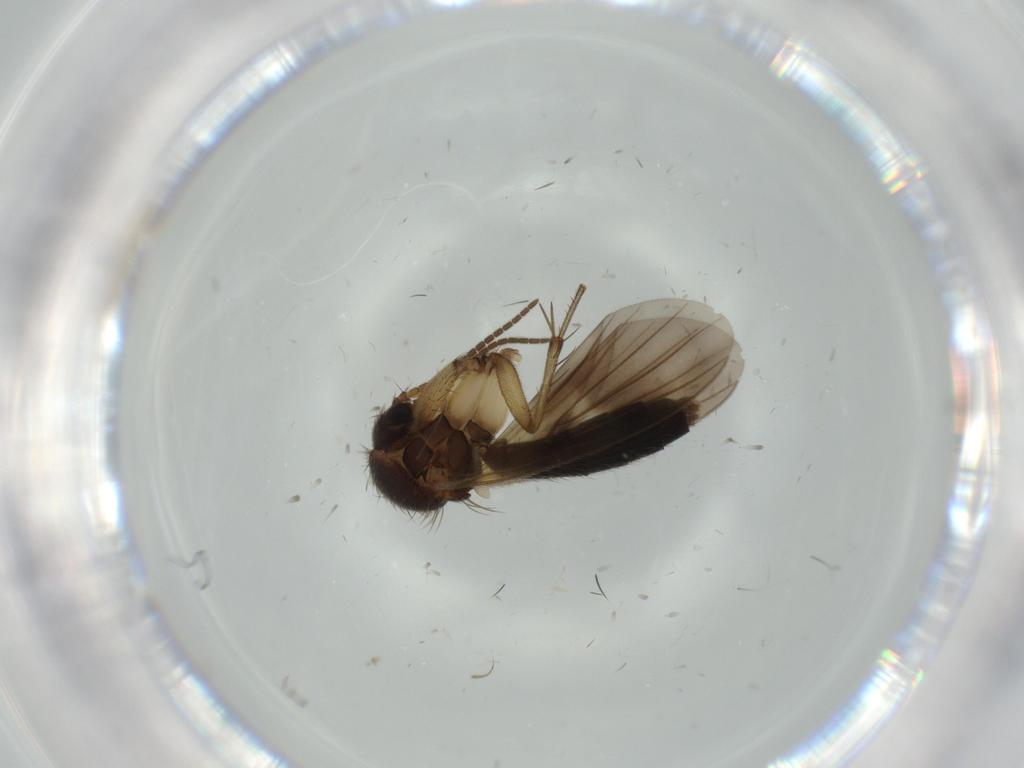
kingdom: Animalia
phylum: Arthropoda
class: Insecta
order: Diptera
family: Culicidae
